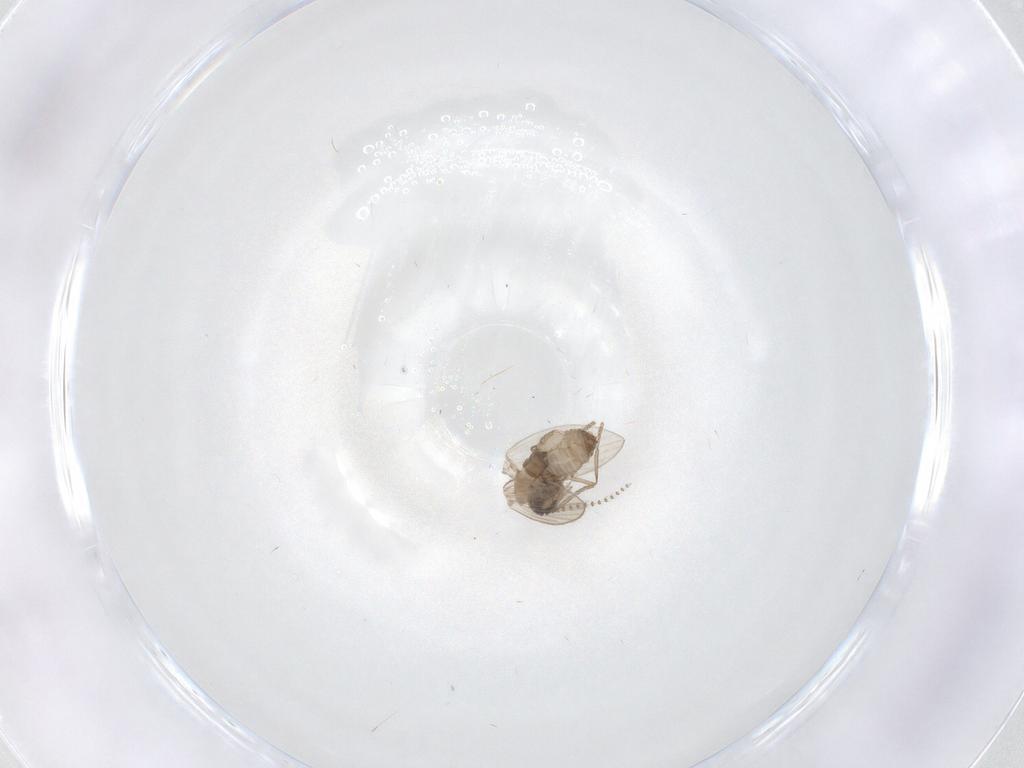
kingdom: Animalia
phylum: Arthropoda
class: Insecta
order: Diptera
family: Psychodidae
